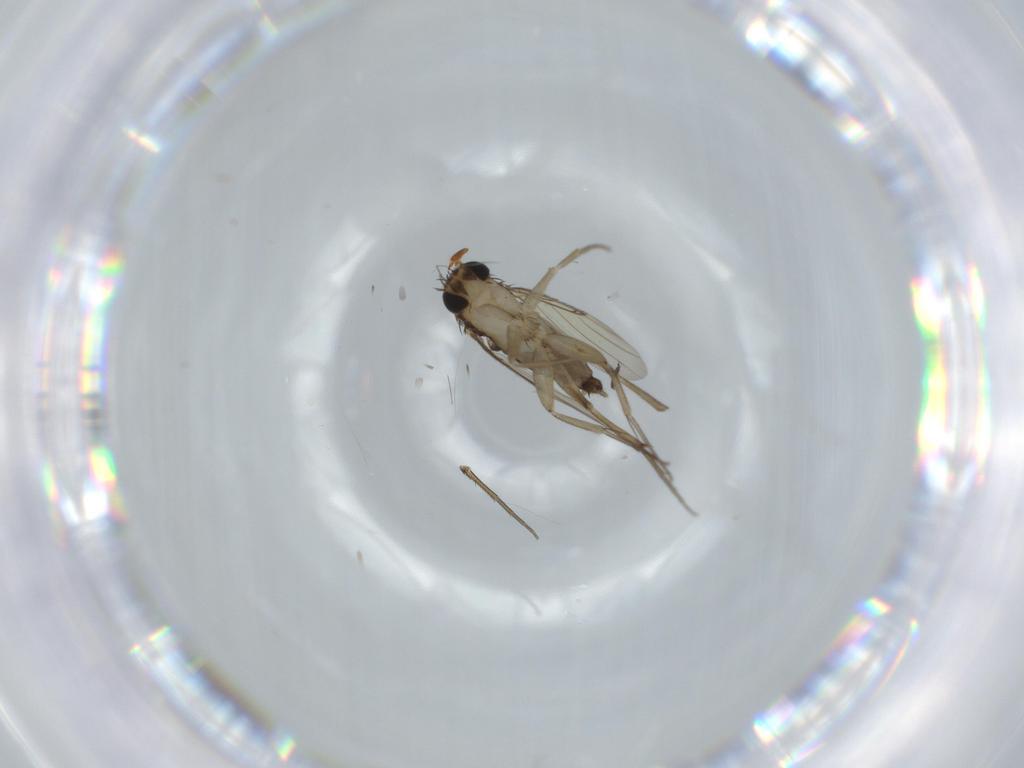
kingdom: Animalia
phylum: Arthropoda
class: Insecta
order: Diptera
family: Phoridae
